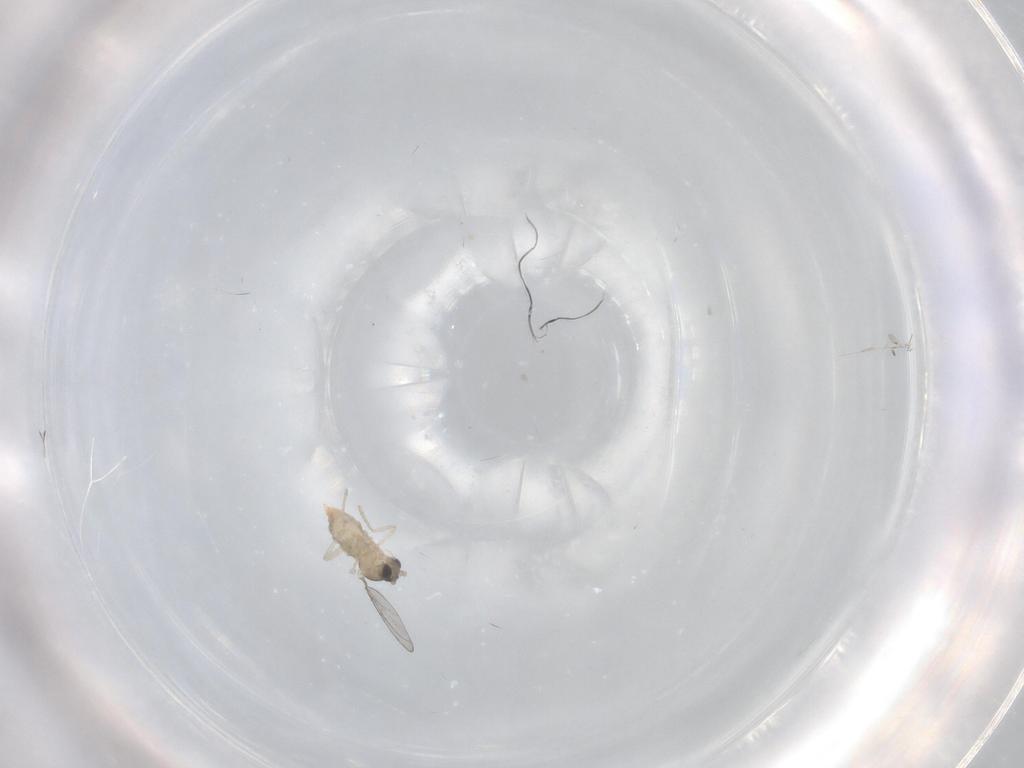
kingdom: Animalia
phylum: Arthropoda
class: Insecta
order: Diptera
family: Cecidomyiidae
